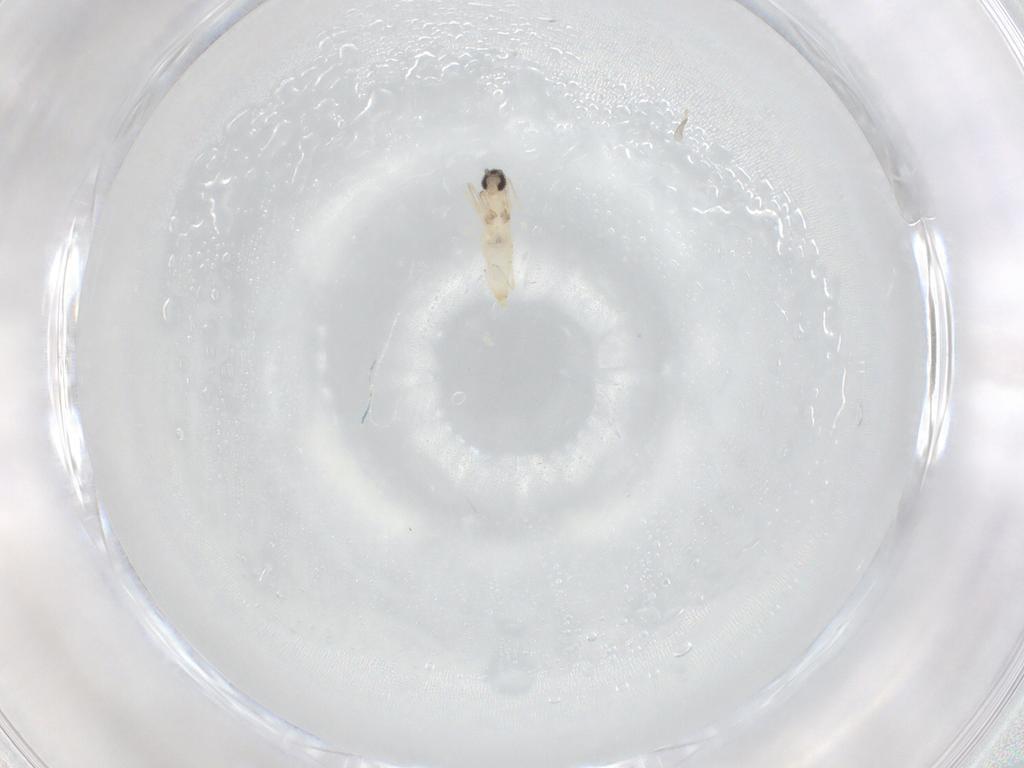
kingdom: Animalia
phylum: Arthropoda
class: Insecta
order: Diptera
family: Cecidomyiidae
